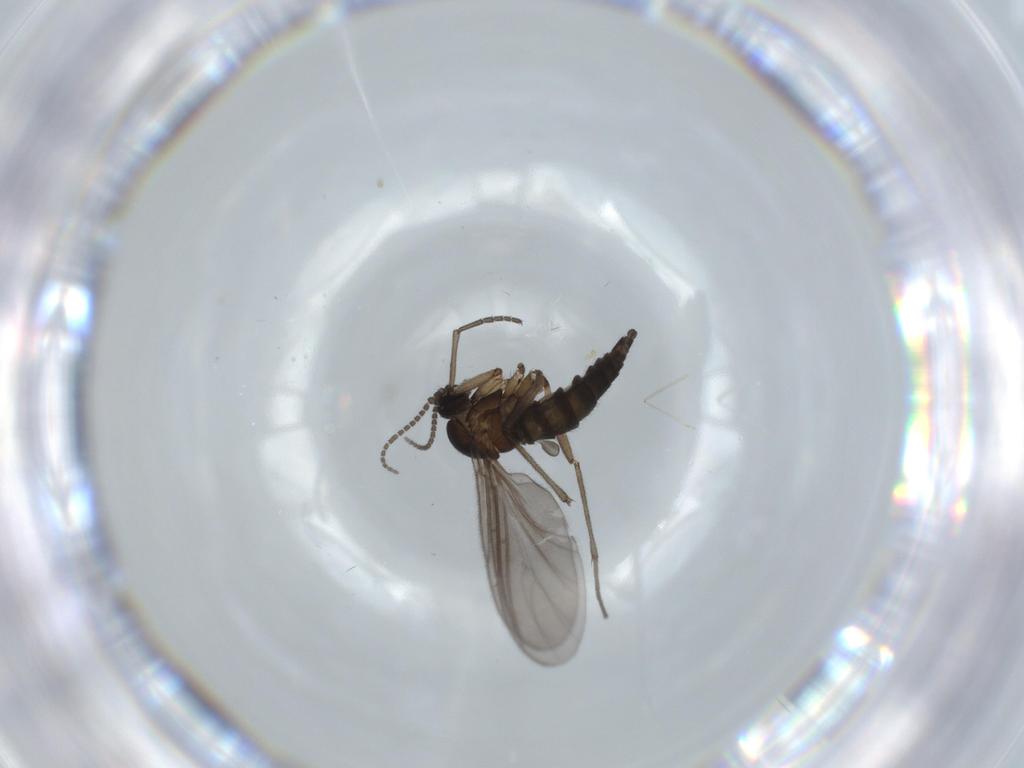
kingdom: Animalia
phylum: Arthropoda
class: Insecta
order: Diptera
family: Sciaridae
